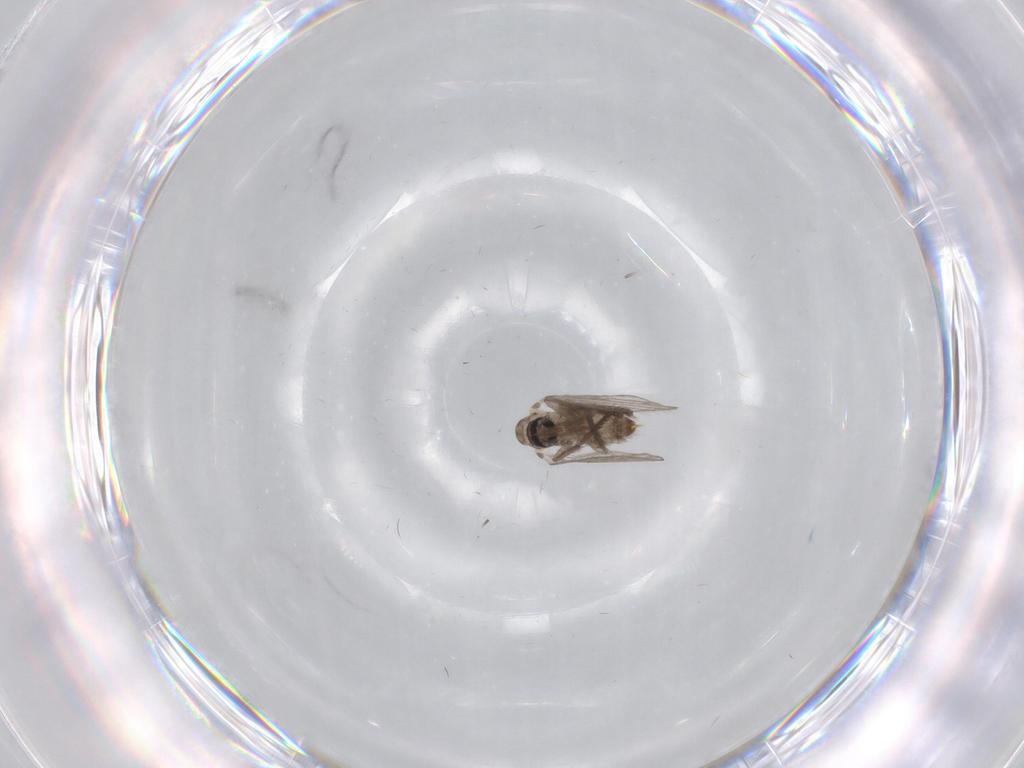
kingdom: Animalia
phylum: Arthropoda
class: Insecta
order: Diptera
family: Psychodidae
